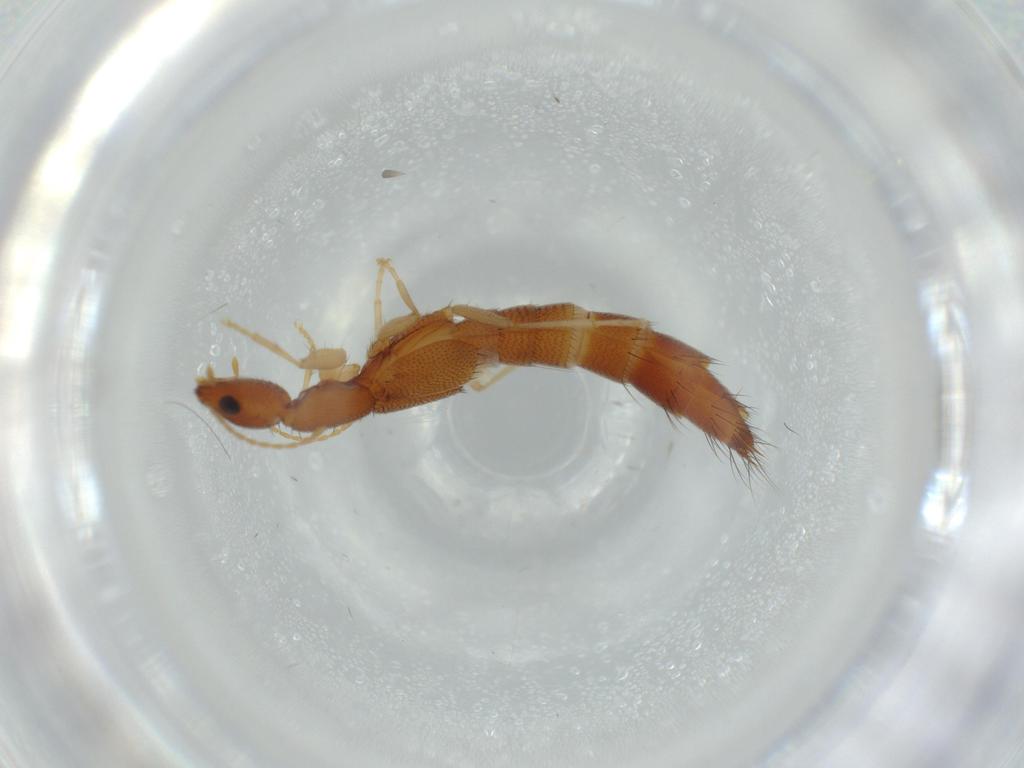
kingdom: Animalia
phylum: Arthropoda
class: Insecta
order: Coleoptera
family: Staphylinidae
